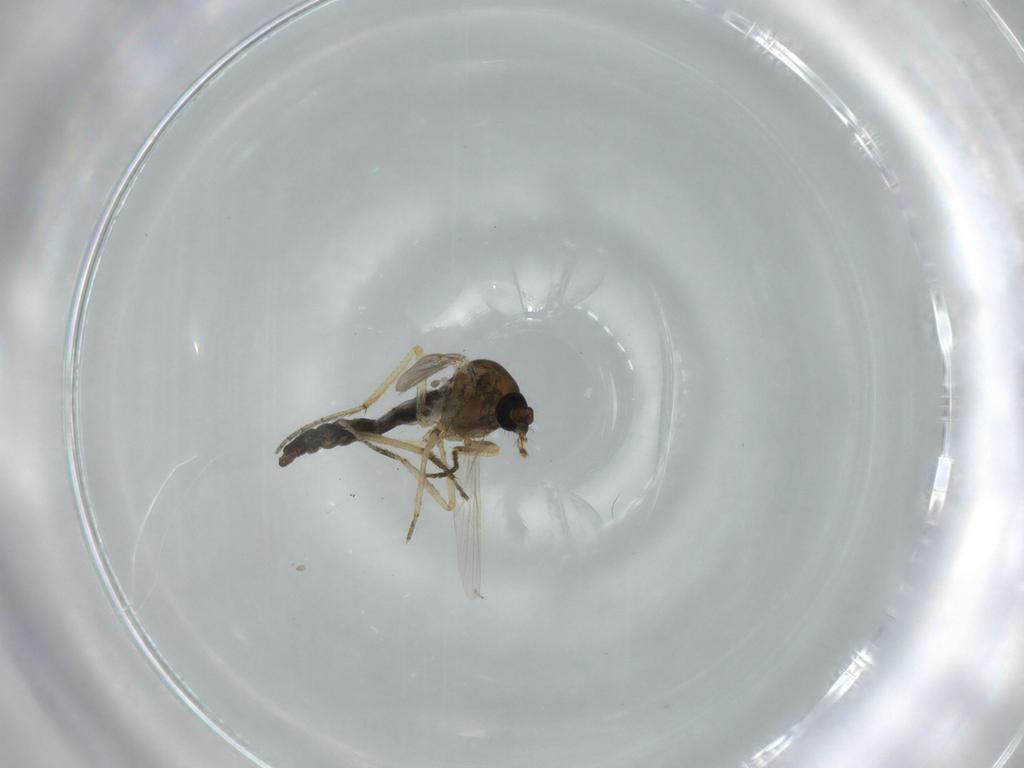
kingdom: Animalia
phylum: Arthropoda
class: Insecta
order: Diptera
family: Ceratopogonidae
